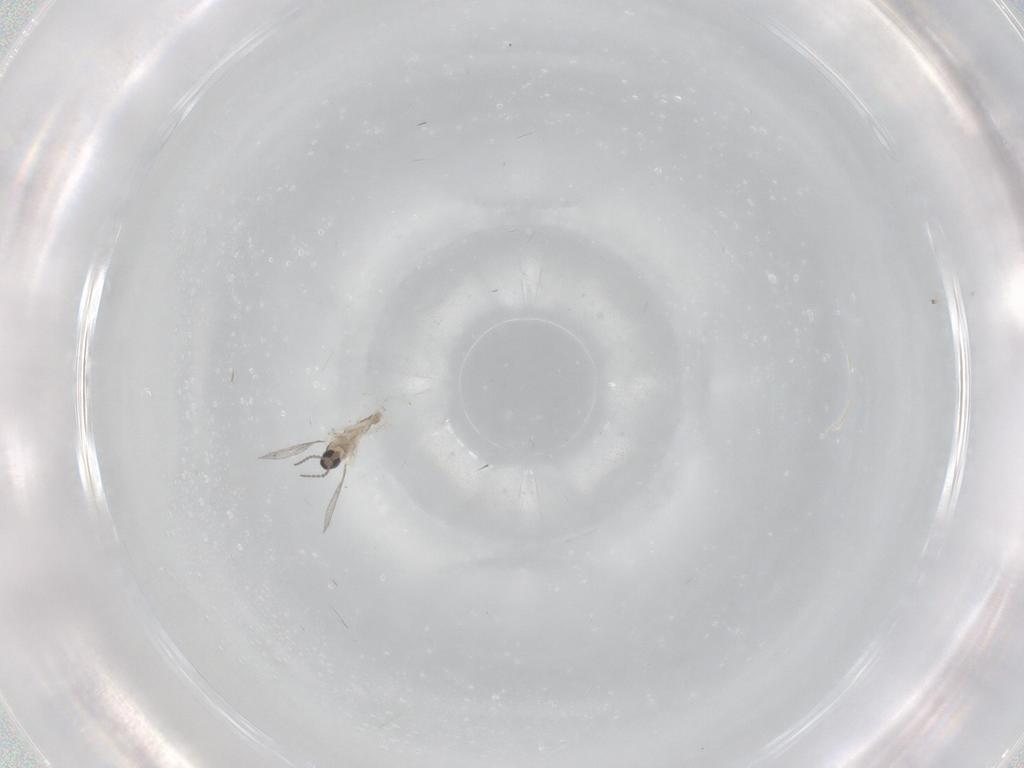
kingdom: Animalia
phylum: Arthropoda
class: Insecta
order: Diptera
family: Cecidomyiidae
